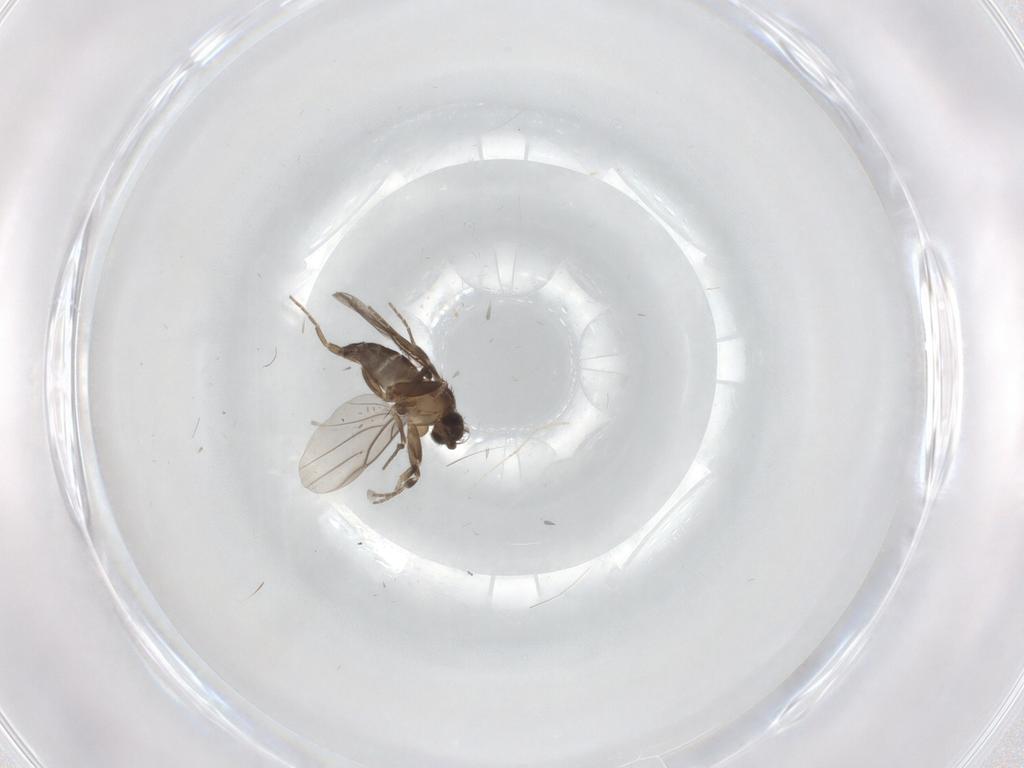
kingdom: Animalia
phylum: Arthropoda
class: Insecta
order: Diptera
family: Phoridae
